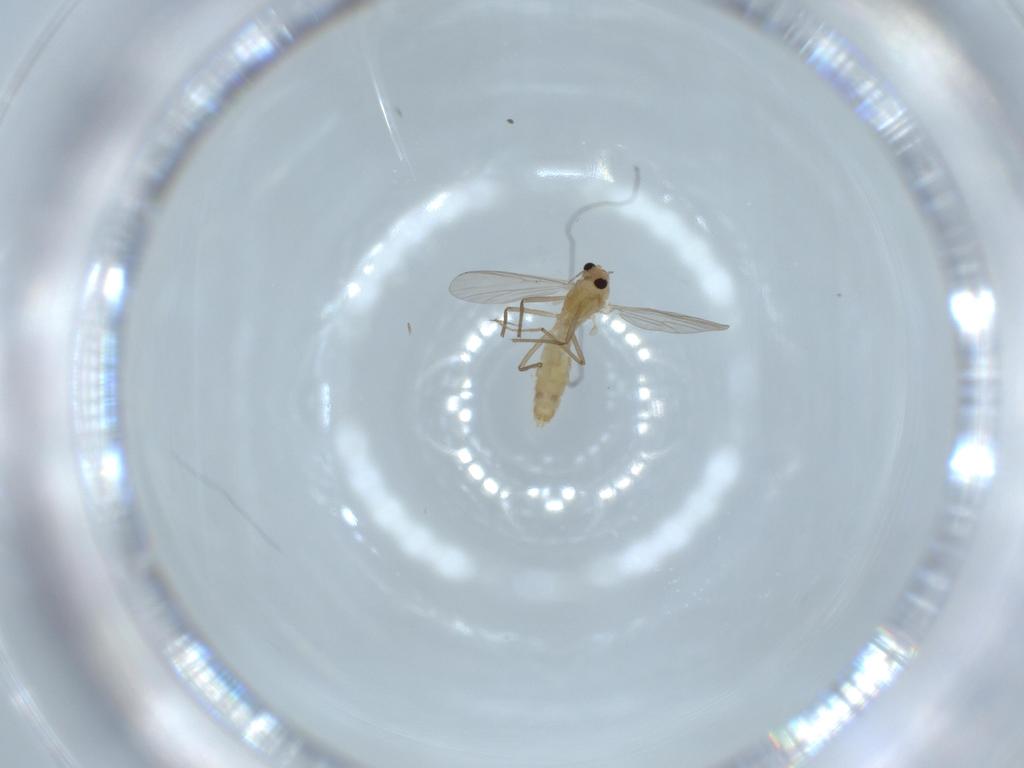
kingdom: Animalia
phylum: Arthropoda
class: Insecta
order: Diptera
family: Chironomidae
